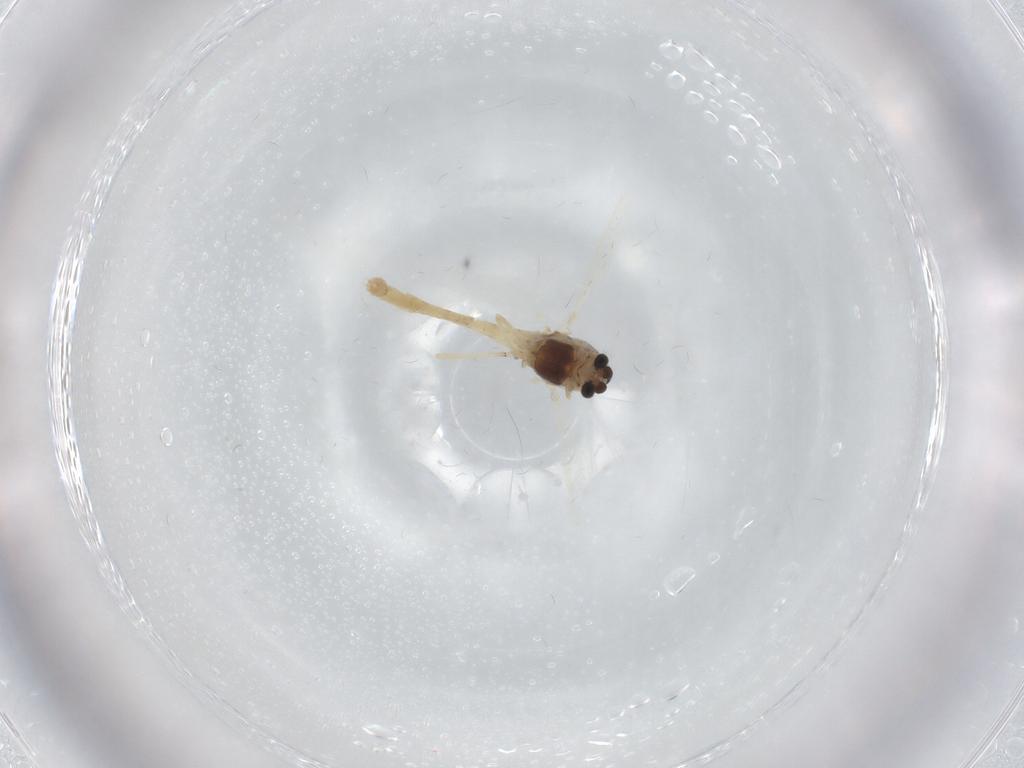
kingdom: Animalia
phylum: Arthropoda
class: Insecta
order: Diptera
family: Chironomidae
